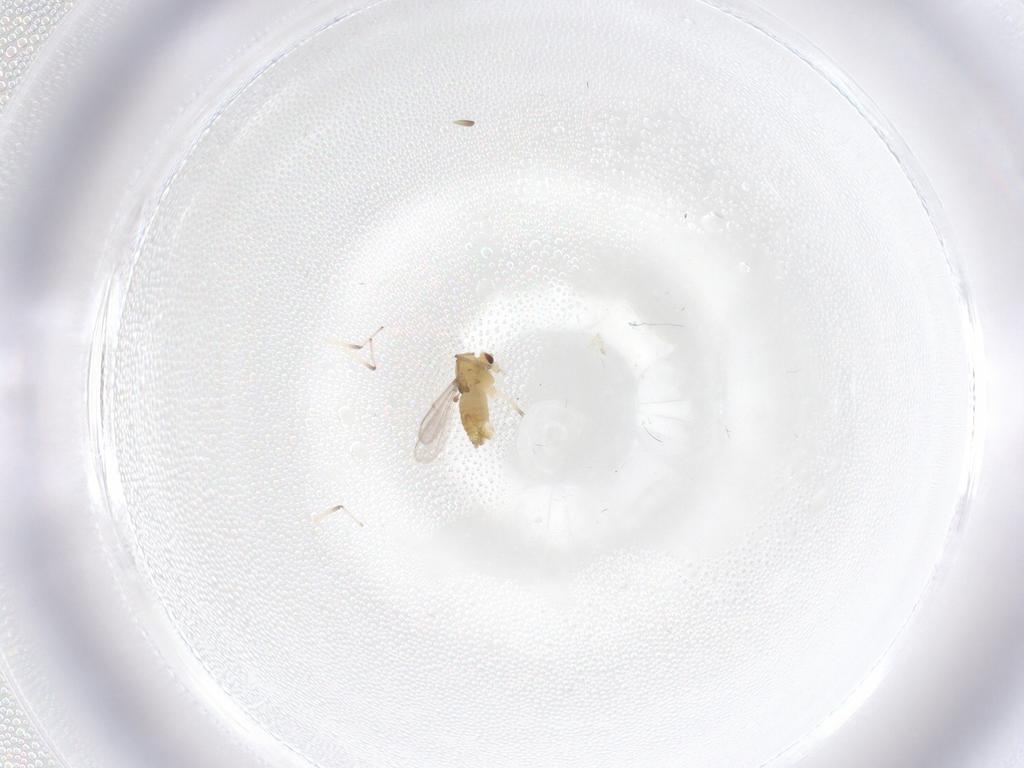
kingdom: Animalia
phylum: Arthropoda
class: Insecta
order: Diptera
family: Chironomidae
